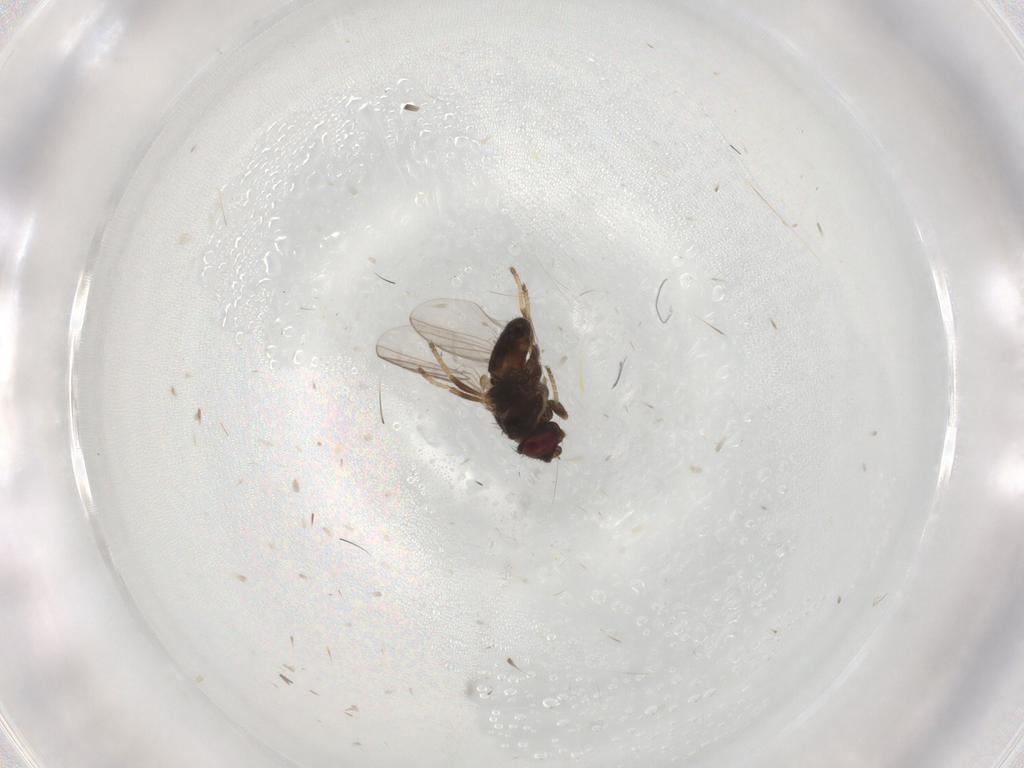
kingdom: Animalia
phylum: Arthropoda
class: Insecta
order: Diptera
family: Chloropidae
